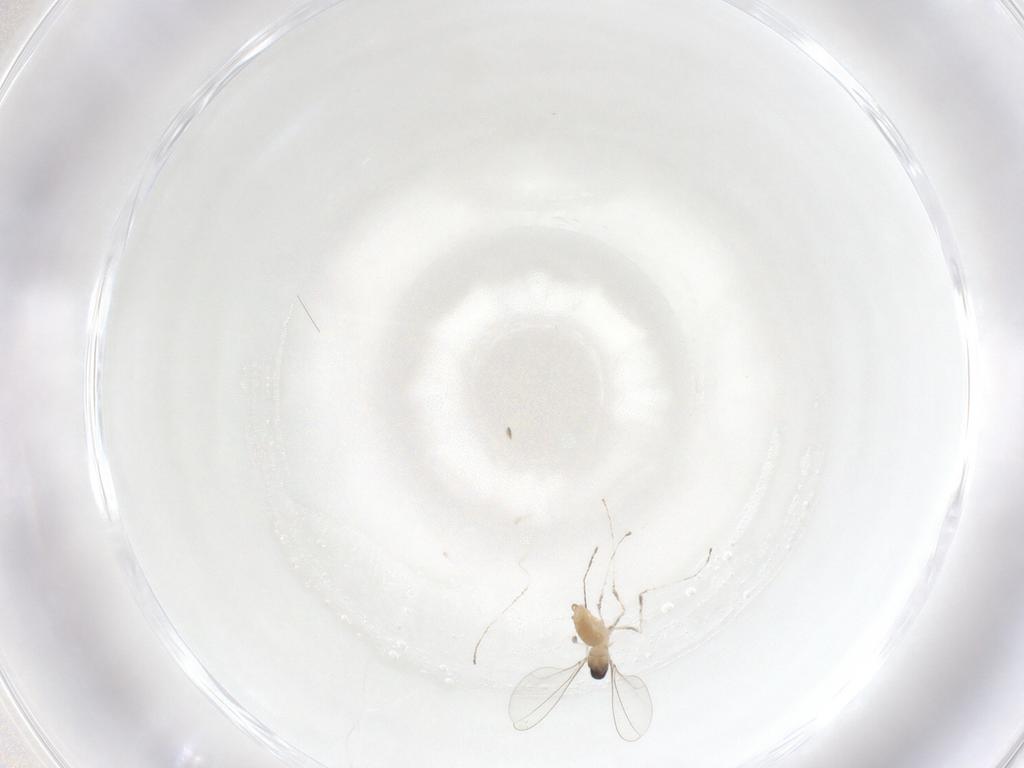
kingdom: Animalia
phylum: Arthropoda
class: Insecta
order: Diptera
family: Cecidomyiidae
